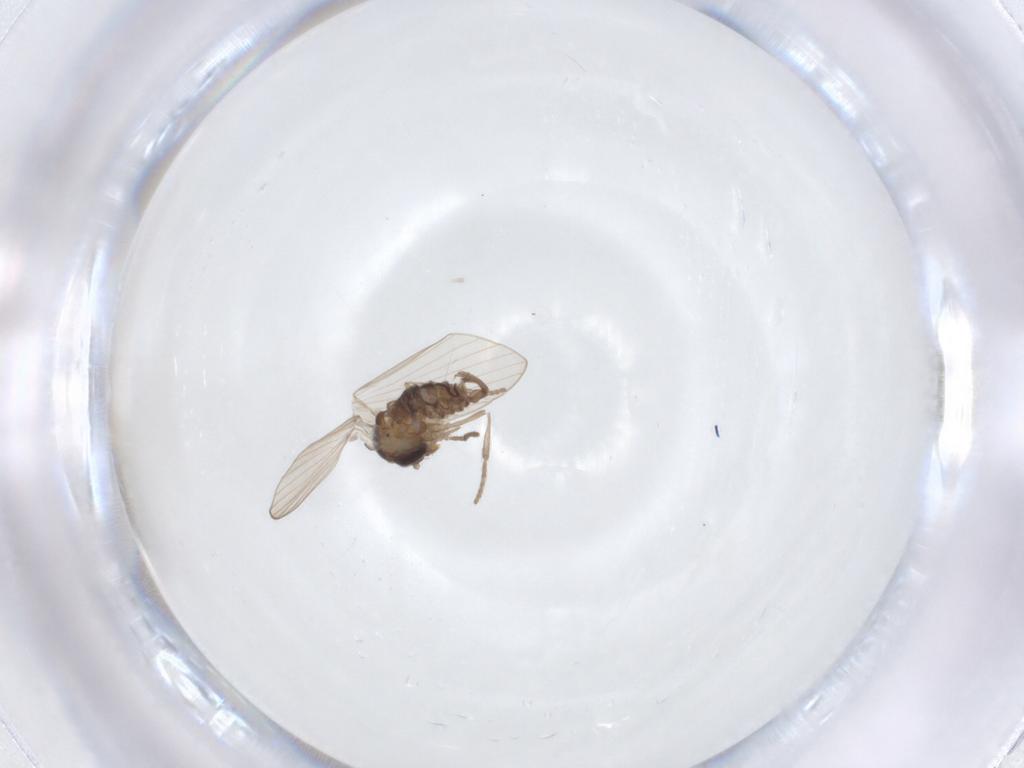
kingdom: Animalia
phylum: Arthropoda
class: Insecta
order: Diptera
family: Psychodidae
